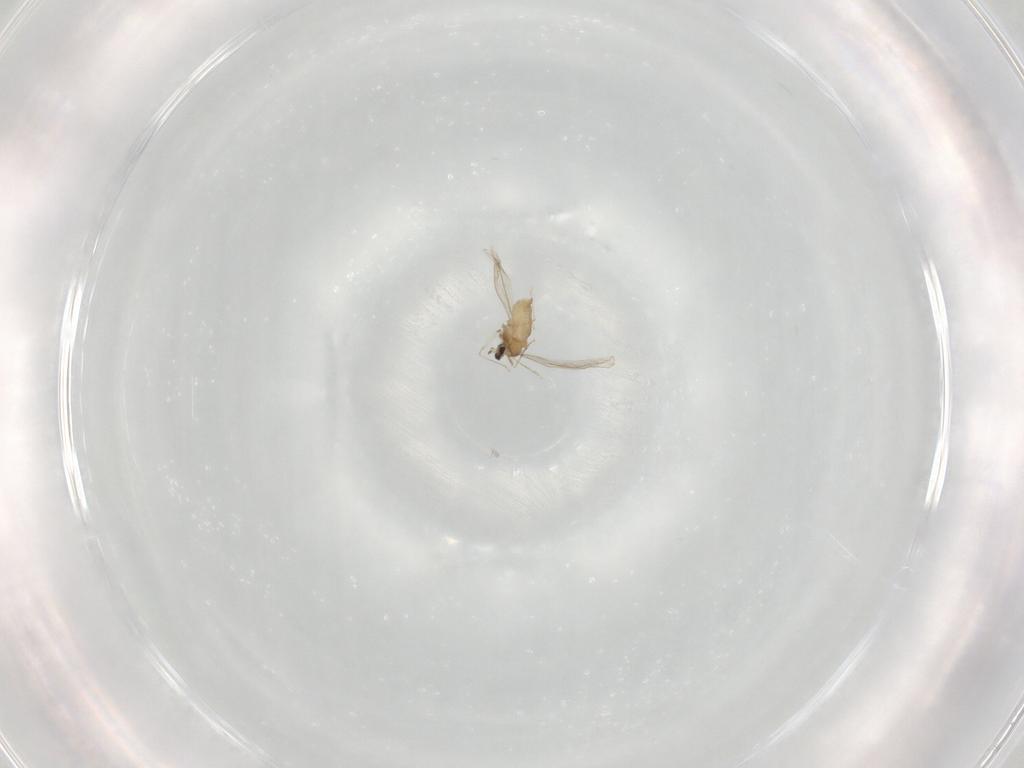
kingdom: Animalia
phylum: Arthropoda
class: Insecta
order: Diptera
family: Cecidomyiidae
